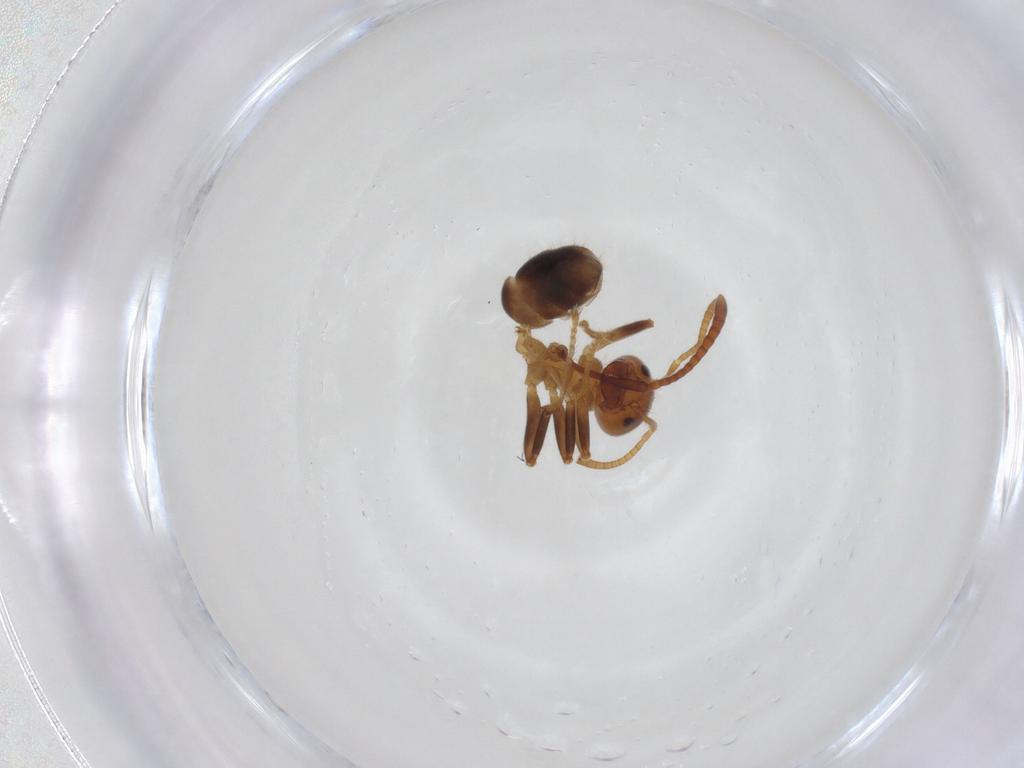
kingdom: Animalia
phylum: Arthropoda
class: Insecta
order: Hymenoptera
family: Formicidae
